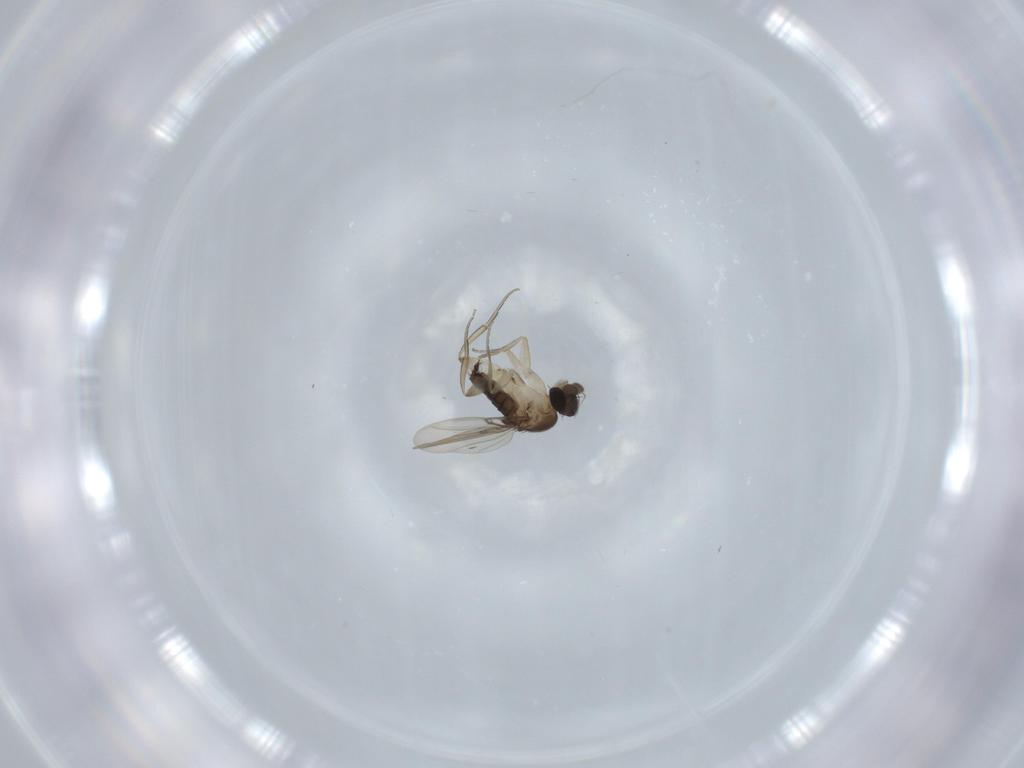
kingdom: Animalia
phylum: Arthropoda
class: Insecta
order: Diptera
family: Phoridae
